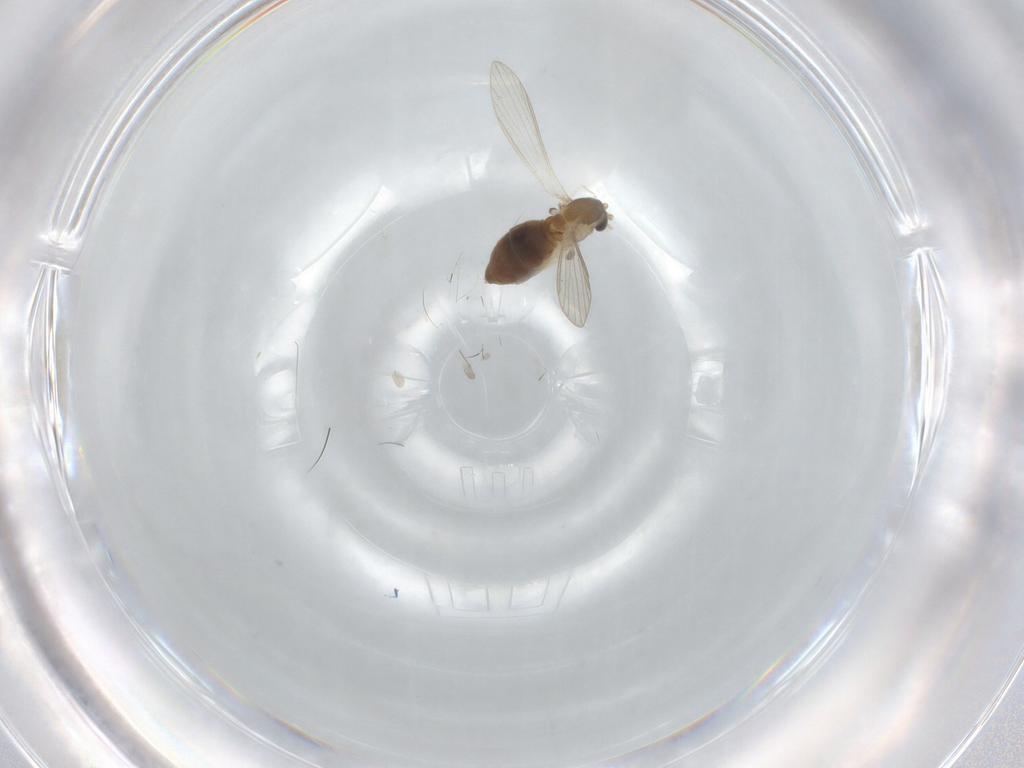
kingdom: Animalia
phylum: Arthropoda
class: Insecta
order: Diptera
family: Psychodidae
